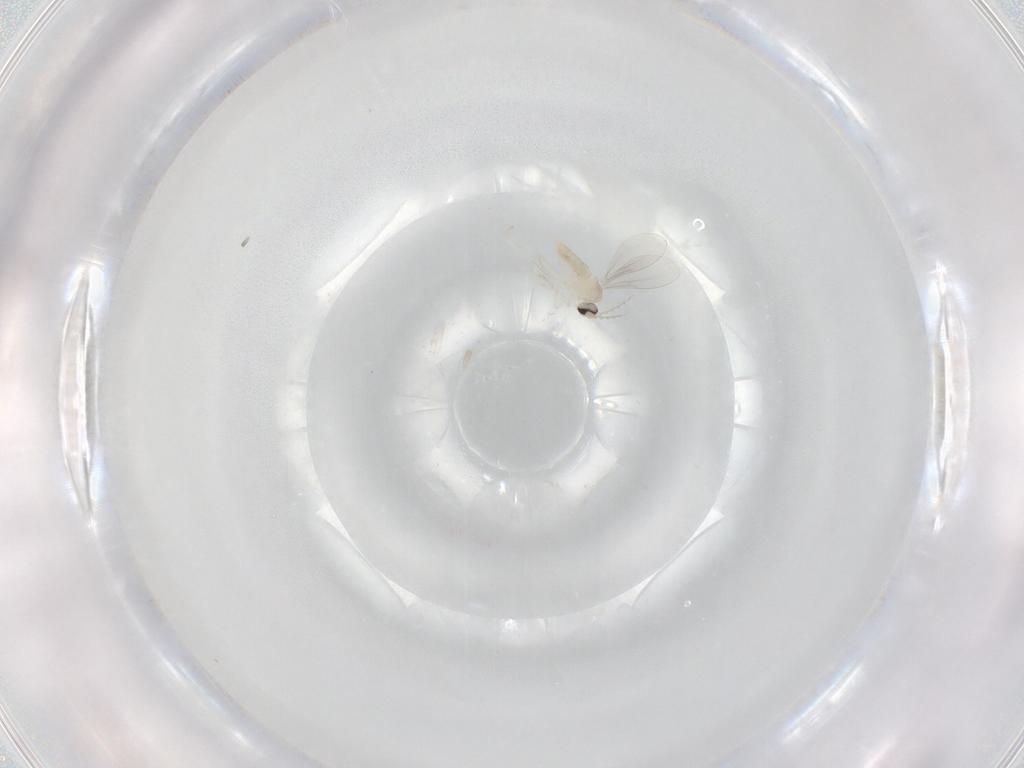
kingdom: Animalia
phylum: Arthropoda
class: Insecta
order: Diptera
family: Cecidomyiidae
